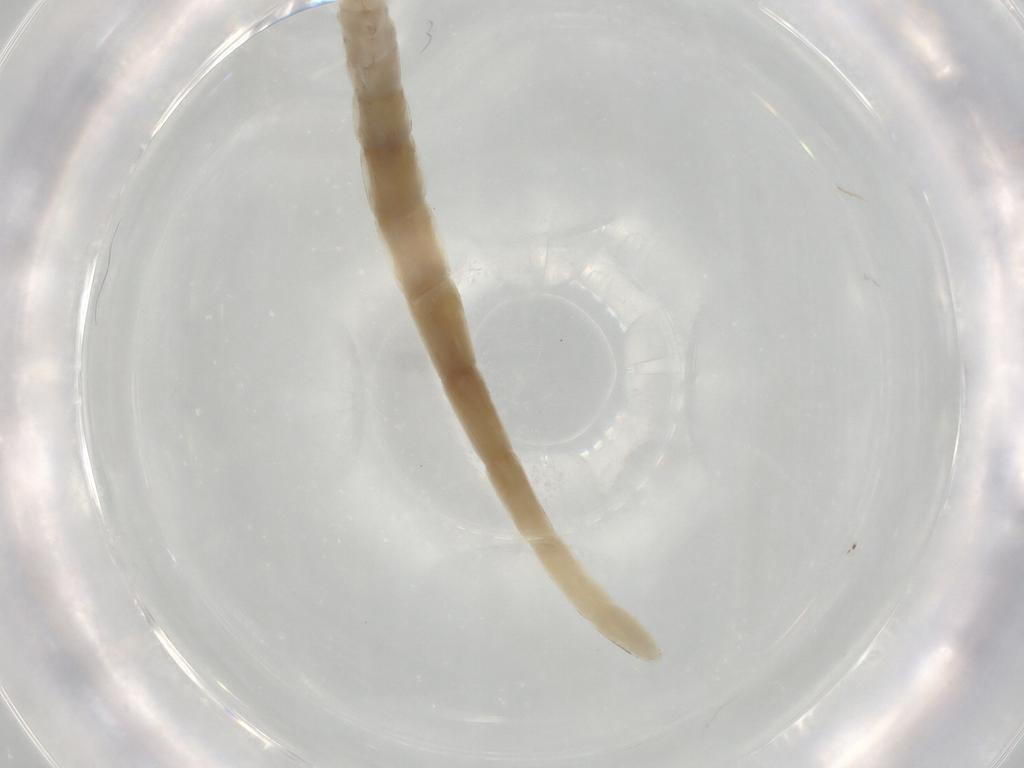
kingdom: Animalia
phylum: Arthropoda
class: Insecta
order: Diptera
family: Ceratopogonidae
